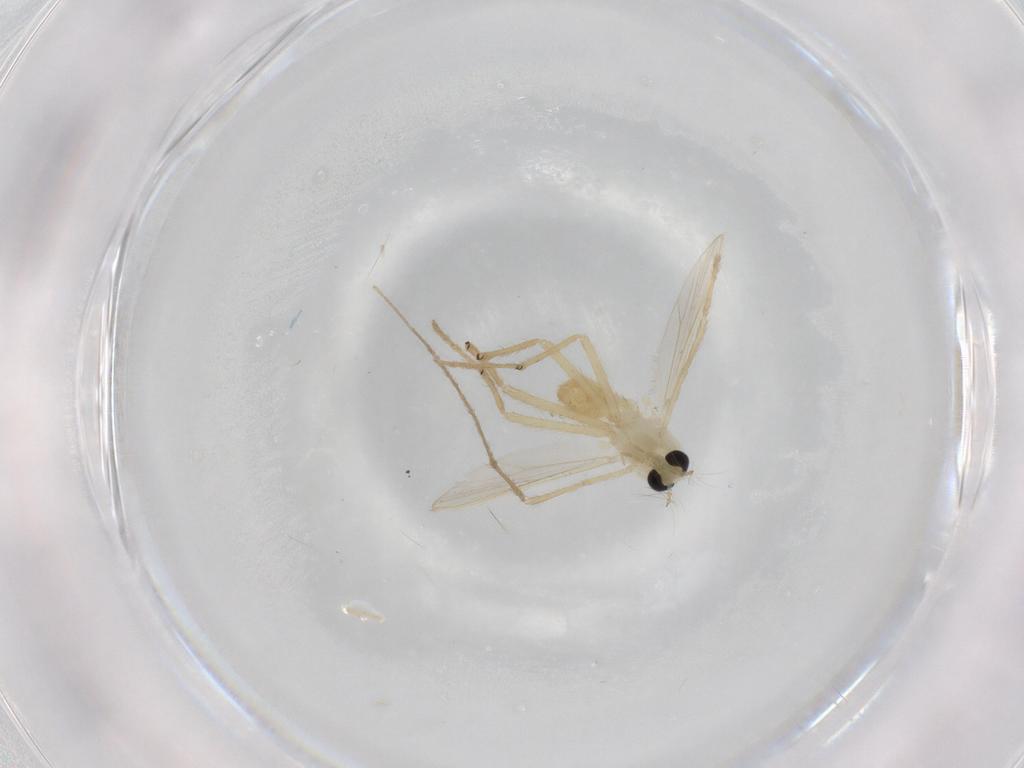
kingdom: Animalia
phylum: Arthropoda
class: Insecta
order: Diptera
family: Chironomidae
